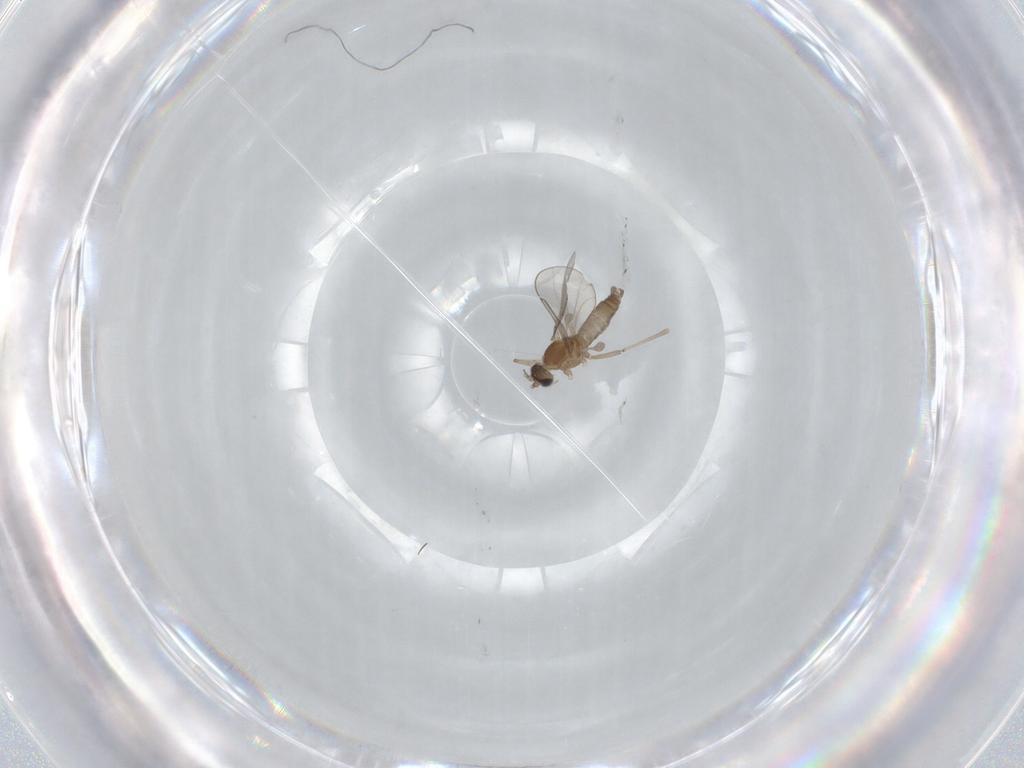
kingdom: Animalia
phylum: Arthropoda
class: Insecta
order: Diptera
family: Cecidomyiidae
